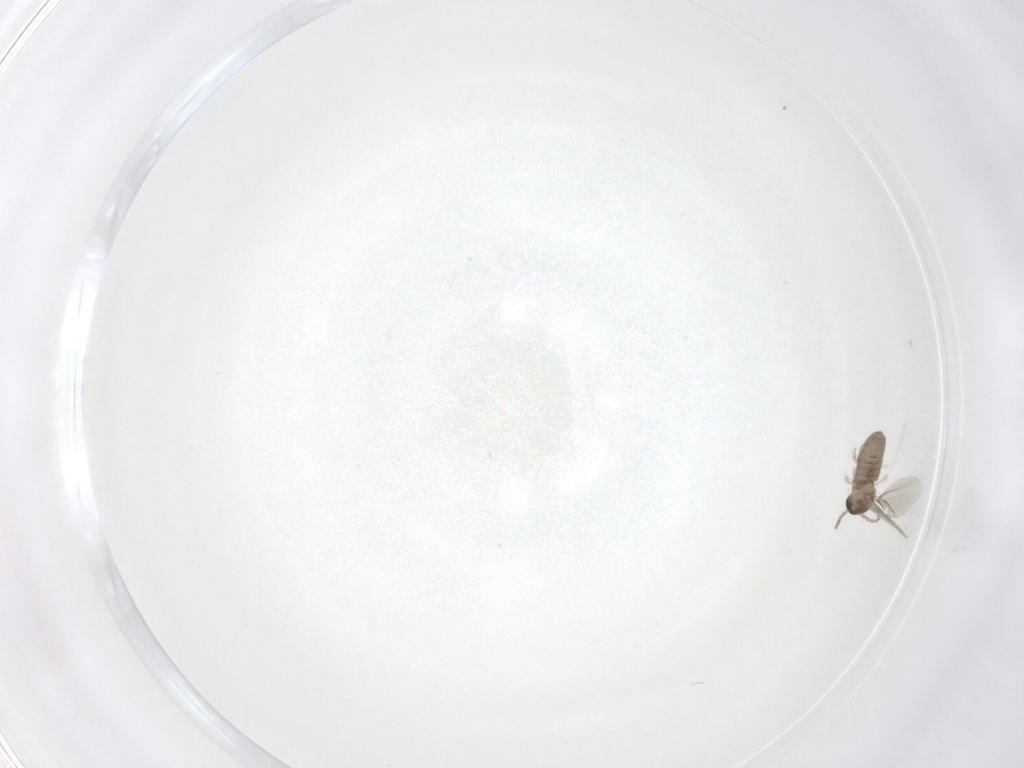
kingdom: Animalia
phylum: Arthropoda
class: Insecta
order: Diptera
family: Cecidomyiidae
